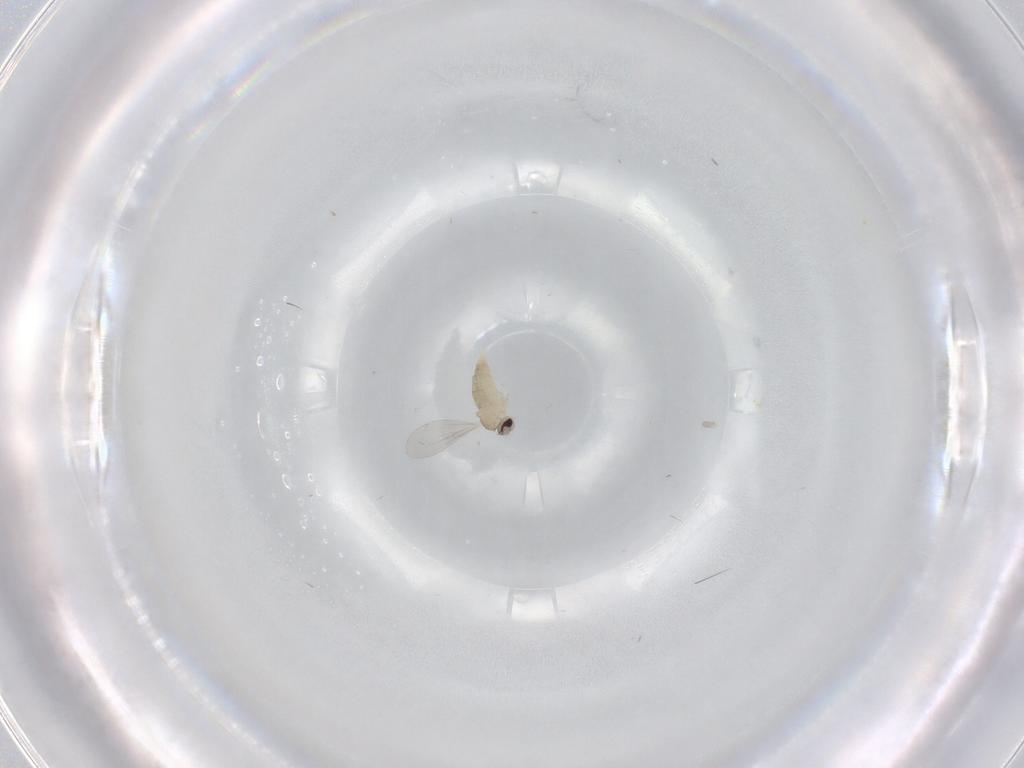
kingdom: Animalia
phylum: Arthropoda
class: Insecta
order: Diptera
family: Cecidomyiidae
